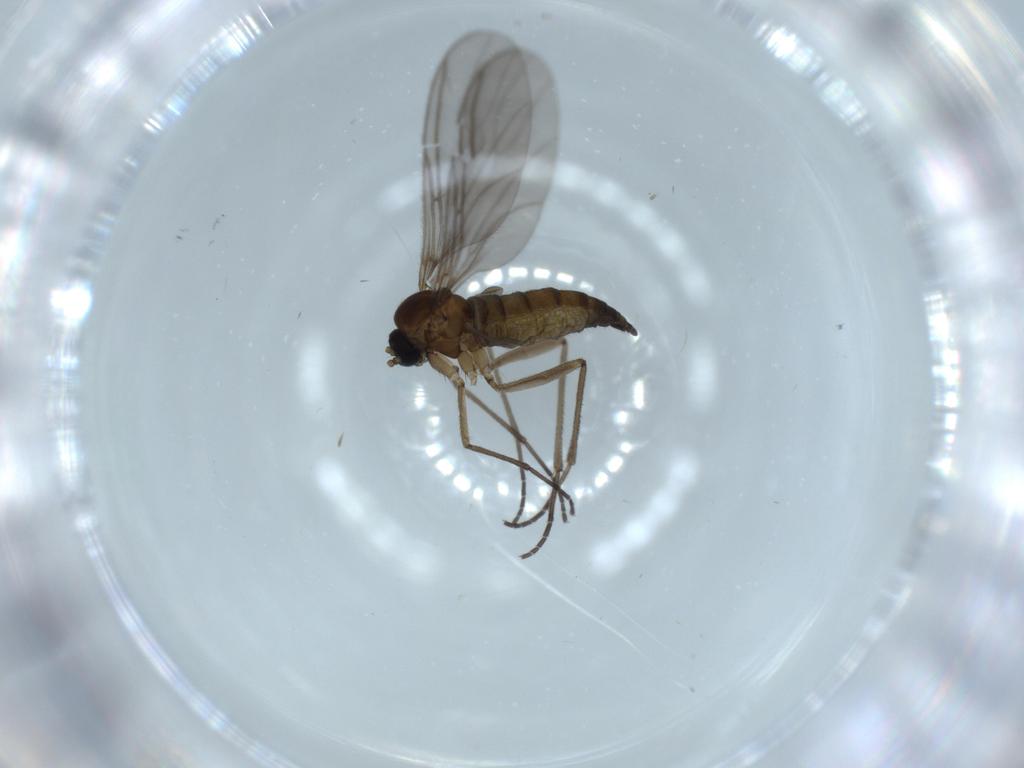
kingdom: Animalia
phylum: Arthropoda
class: Insecta
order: Diptera
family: Sciaridae
